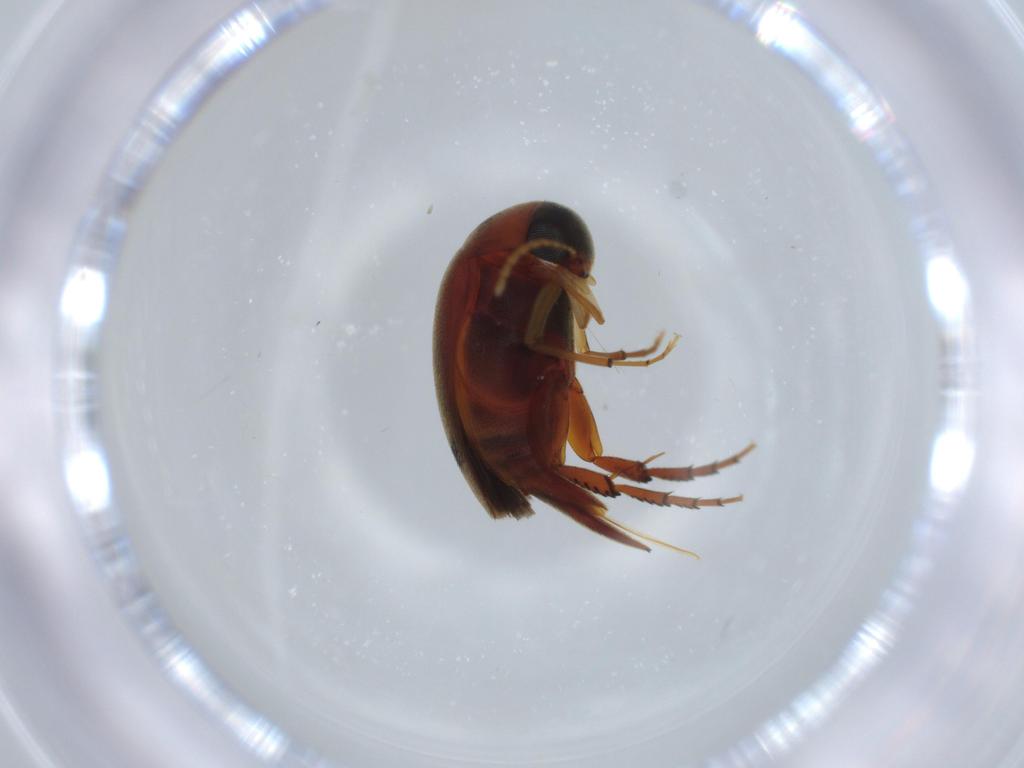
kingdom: Animalia
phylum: Arthropoda
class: Insecta
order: Coleoptera
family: Mordellidae
